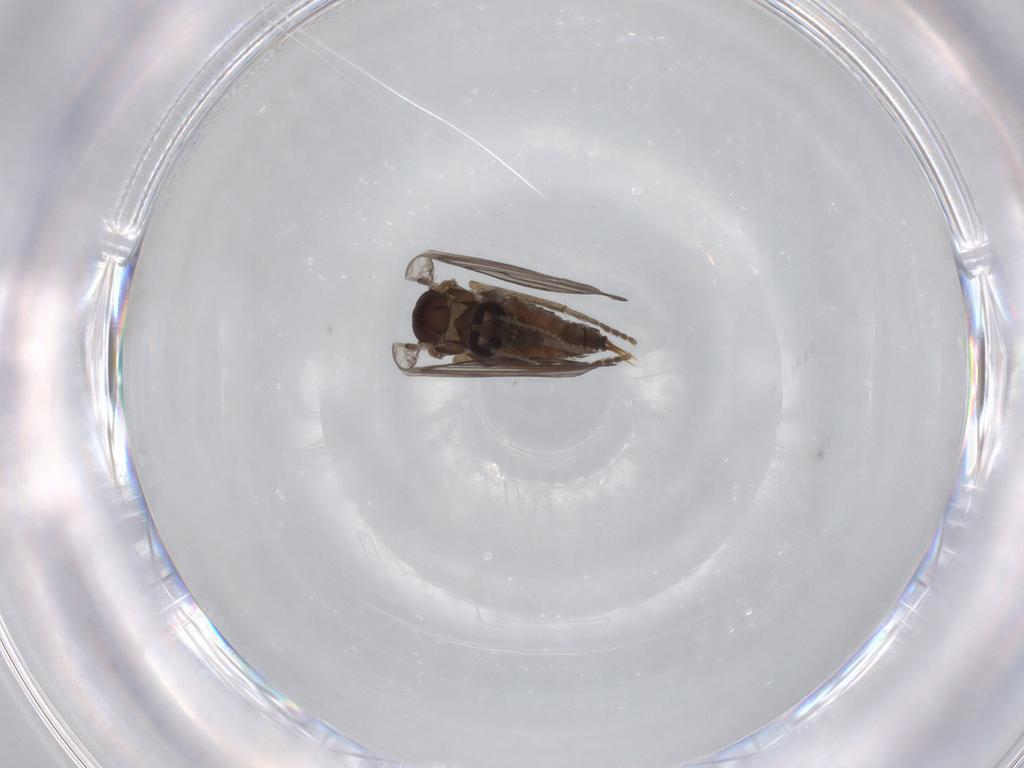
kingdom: Animalia
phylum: Arthropoda
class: Insecta
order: Diptera
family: Psychodidae
